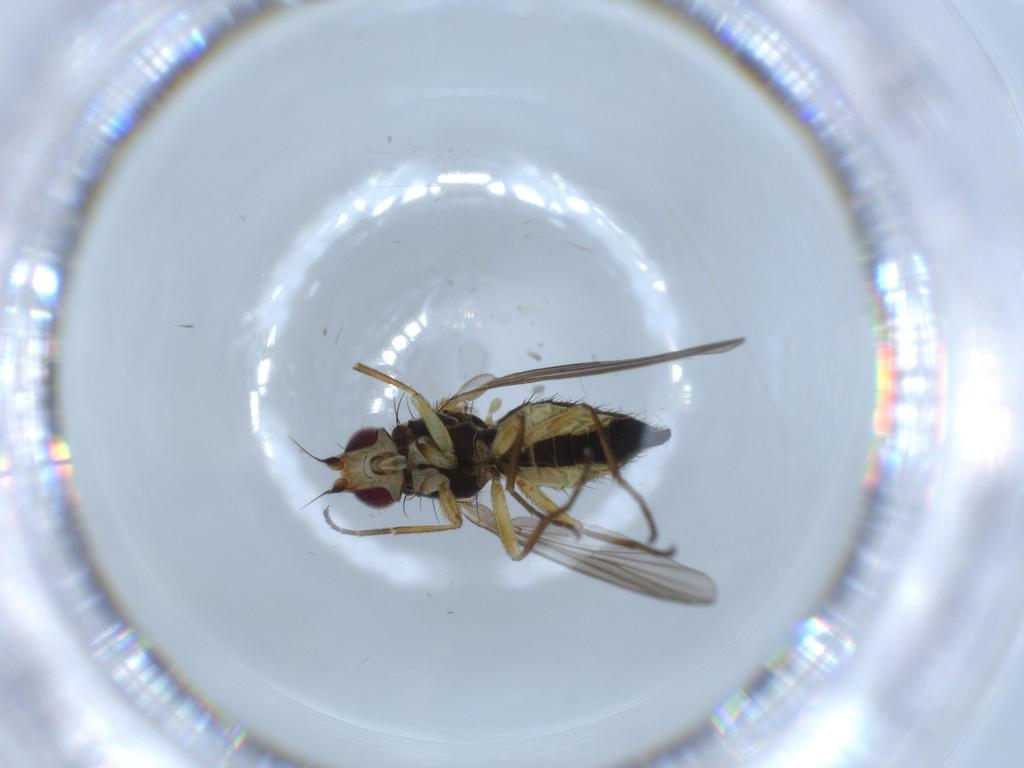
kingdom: Animalia
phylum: Arthropoda
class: Insecta
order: Diptera
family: Agromyzidae
